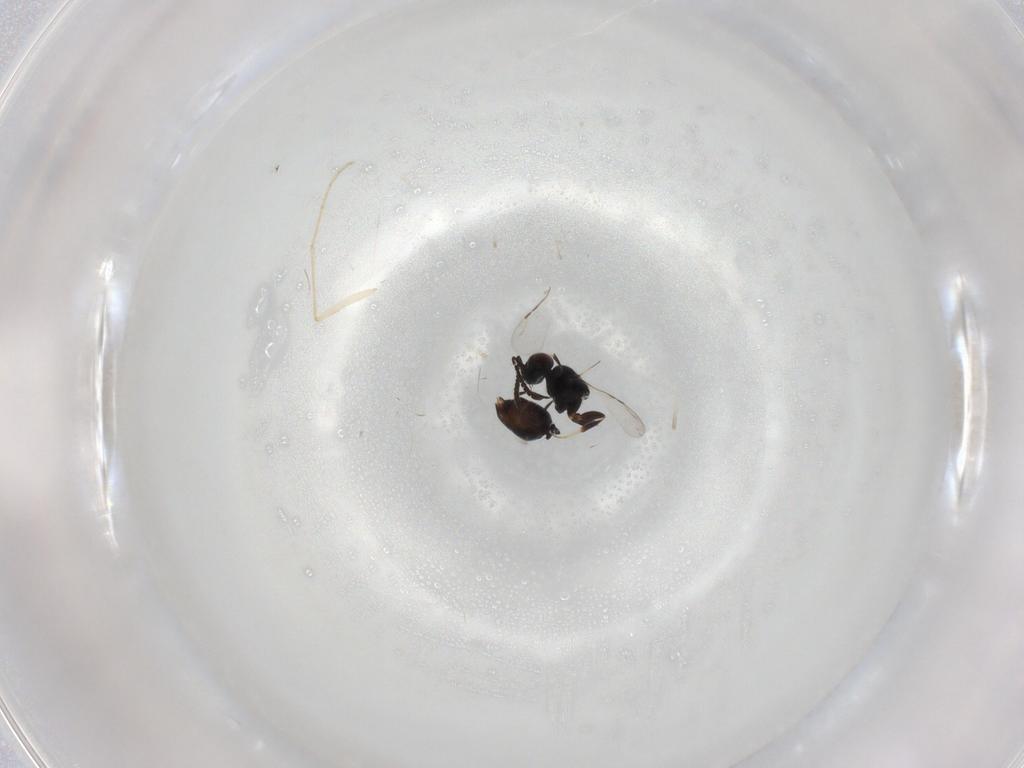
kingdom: Animalia
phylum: Arthropoda
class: Insecta
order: Hymenoptera
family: Ceraphronidae
